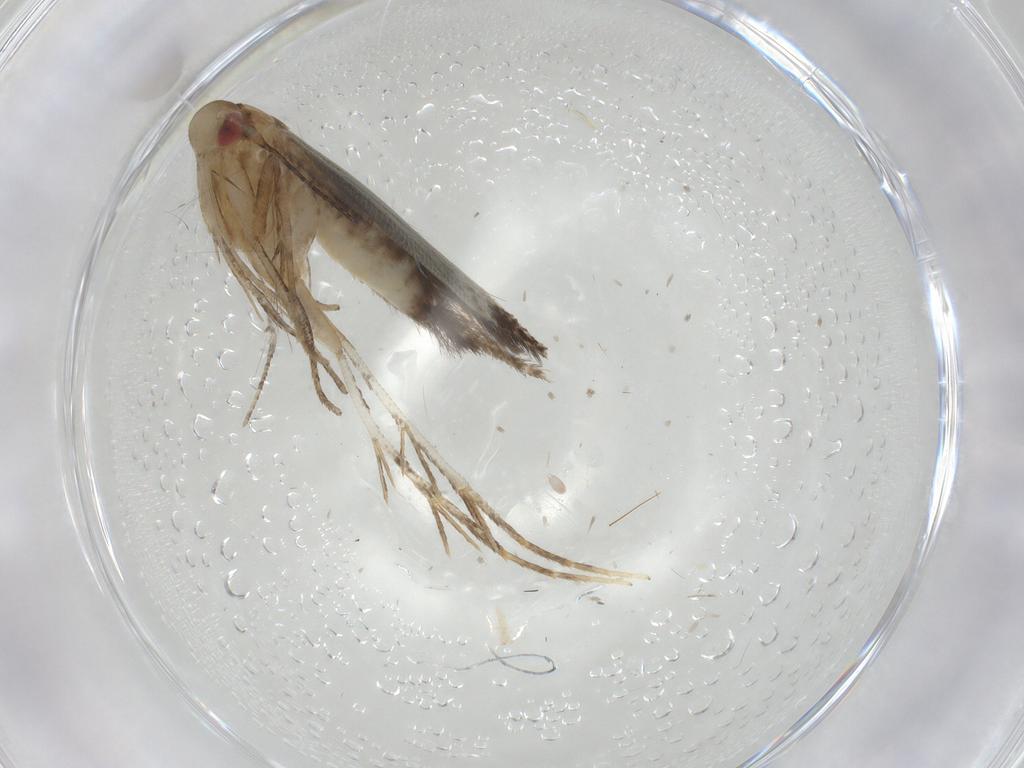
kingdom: Animalia
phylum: Arthropoda
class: Insecta
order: Lepidoptera
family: Cosmopterigidae
